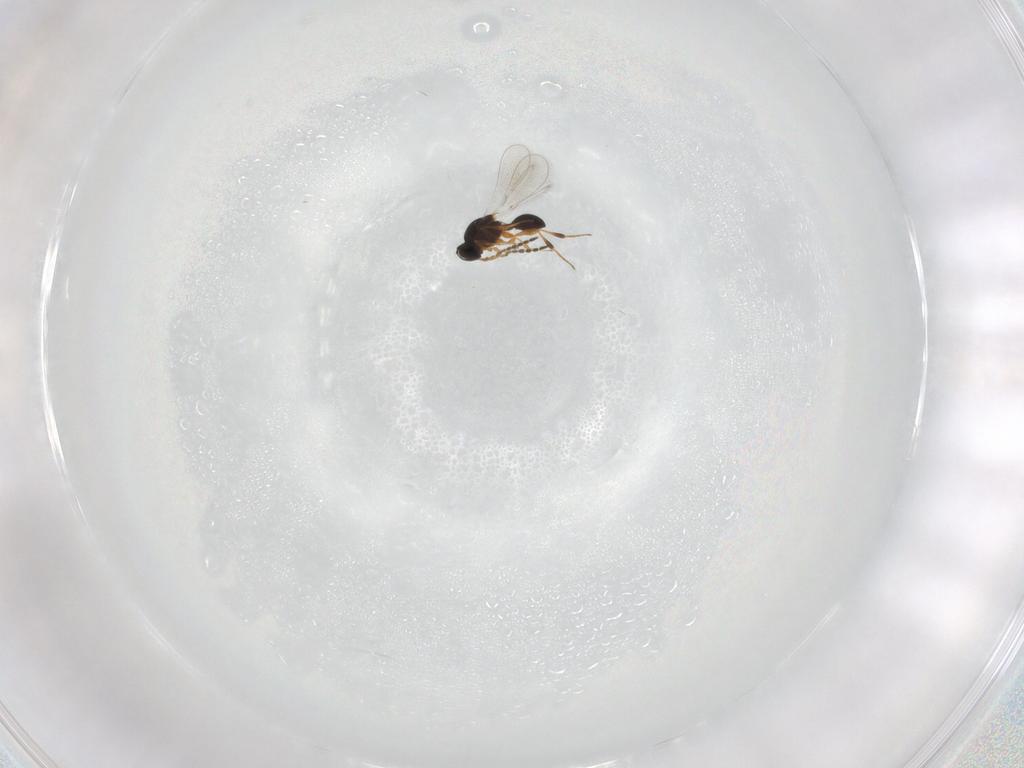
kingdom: Animalia
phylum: Arthropoda
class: Insecta
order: Hymenoptera
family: Platygastridae
